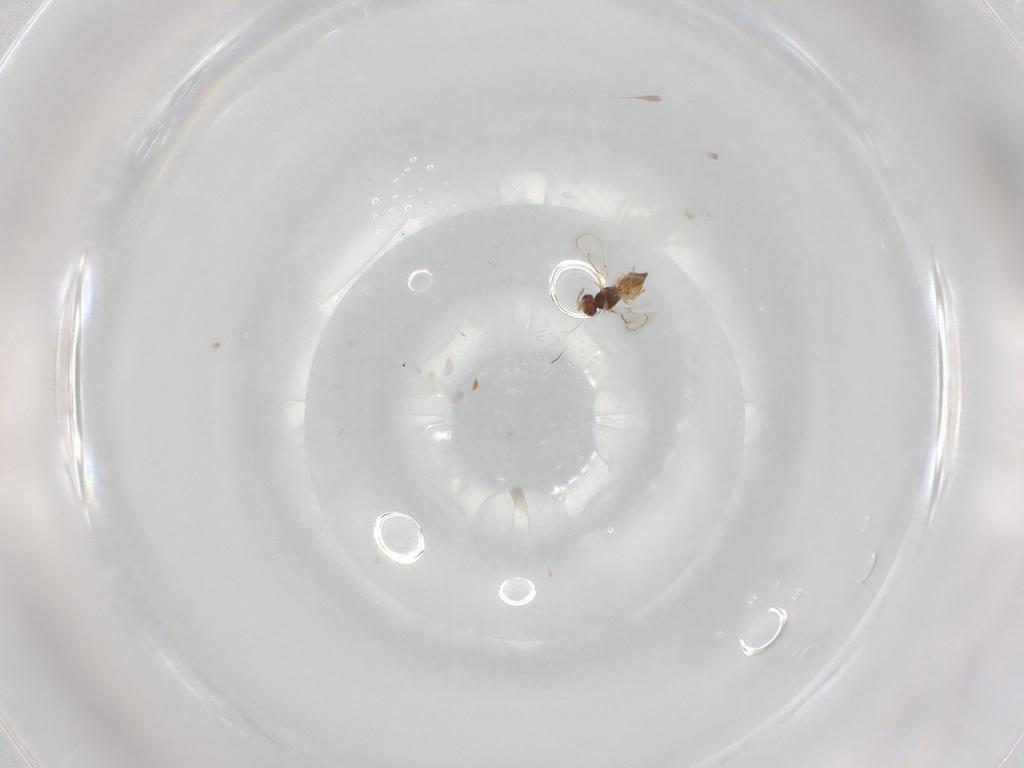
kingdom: Animalia
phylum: Arthropoda
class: Insecta
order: Hymenoptera
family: Eulophidae
